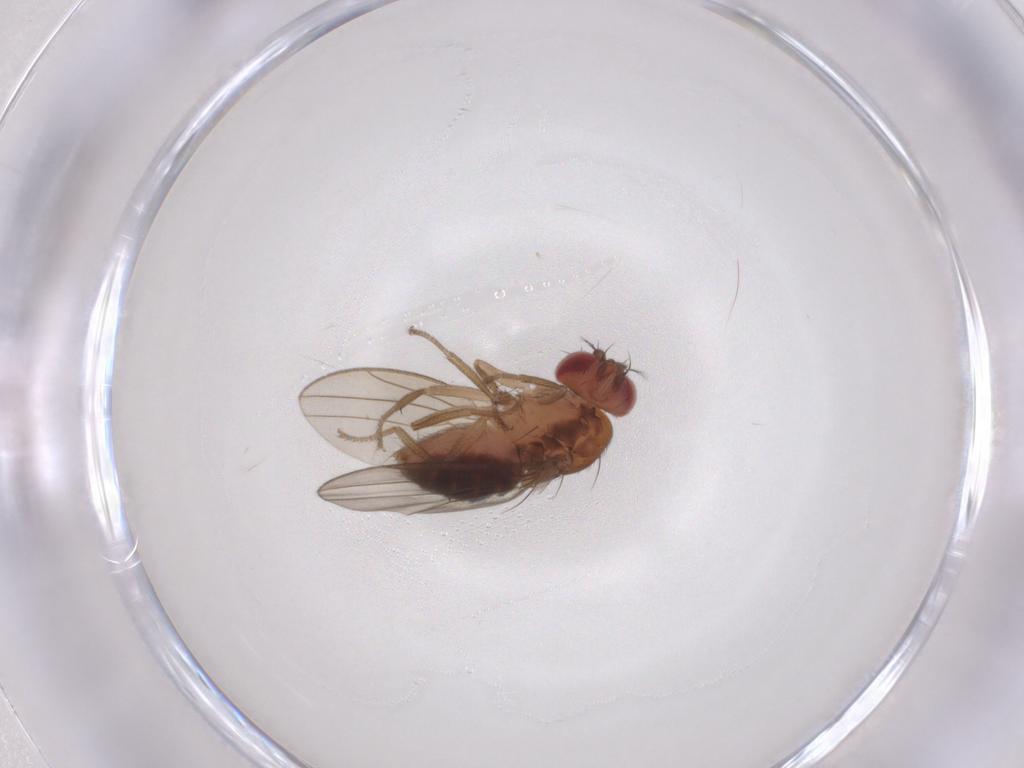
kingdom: Animalia
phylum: Arthropoda
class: Insecta
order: Diptera
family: Drosophilidae
